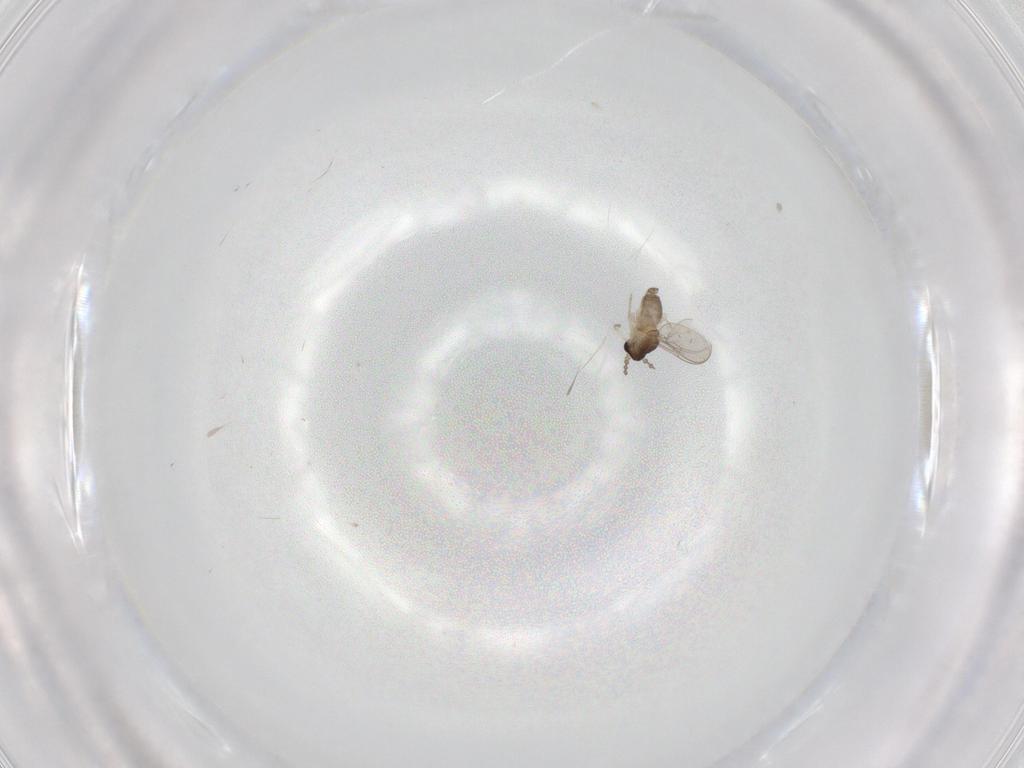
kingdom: Animalia
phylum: Arthropoda
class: Insecta
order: Diptera
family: Cecidomyiidae
